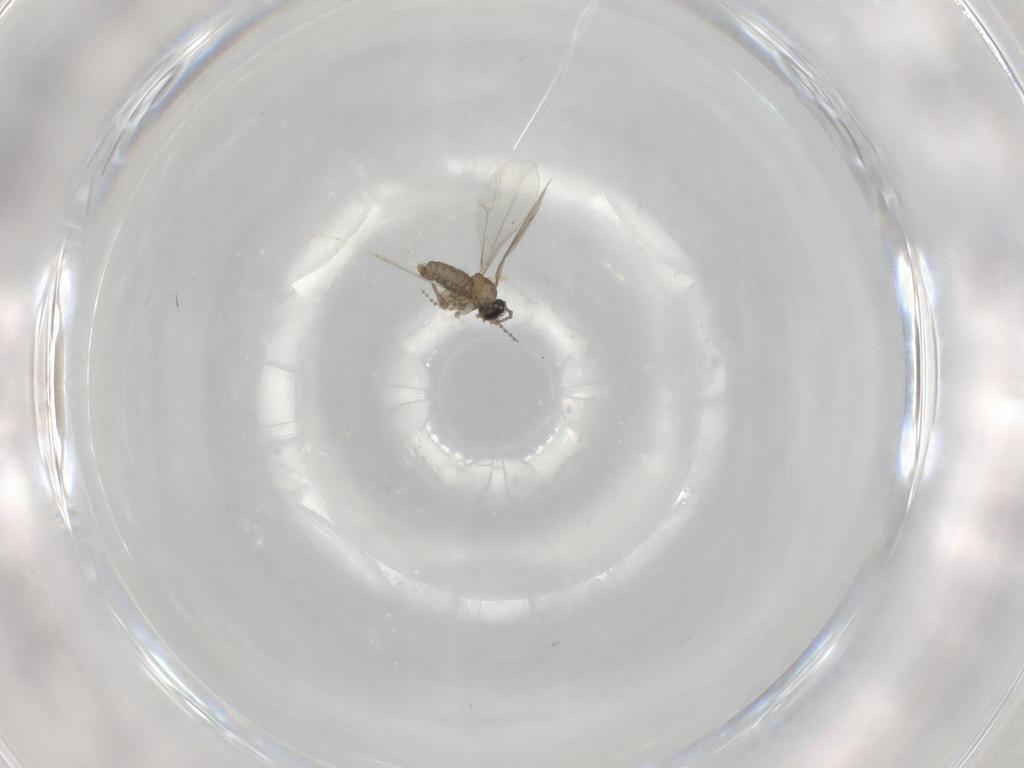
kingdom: Animalia
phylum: Arthropoda
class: Insecta
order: Diptera
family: Cecidomyiidae
